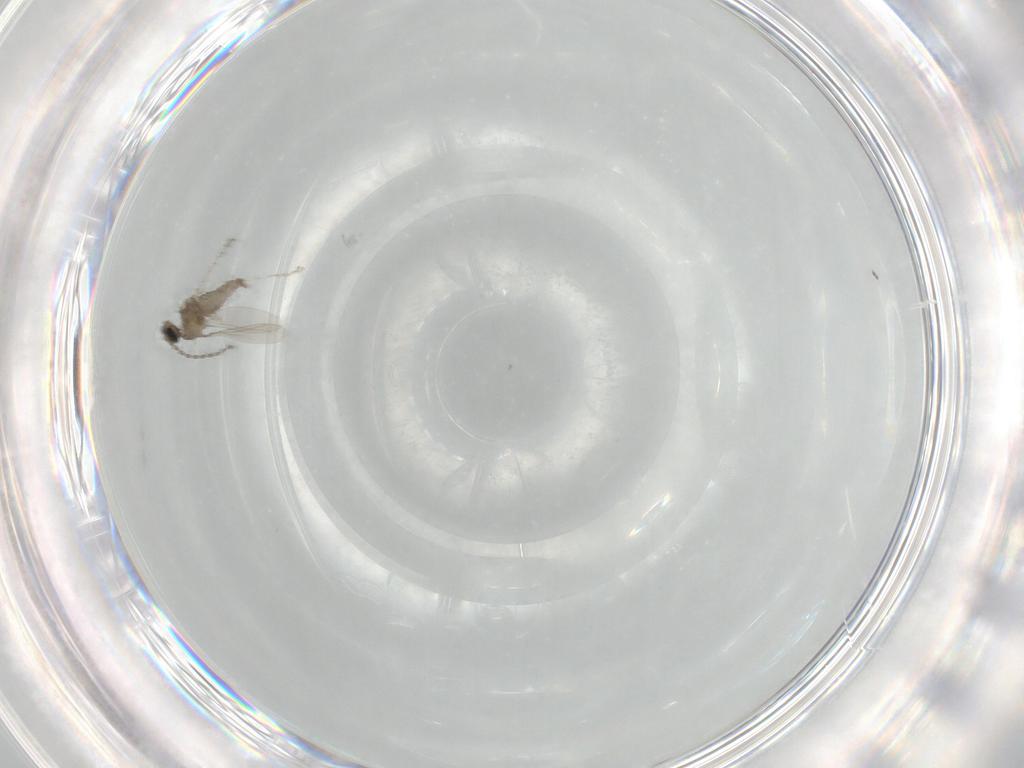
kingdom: Animalia
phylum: Arthropoda
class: Insecta
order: Diptera
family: Cecidomyiidae
